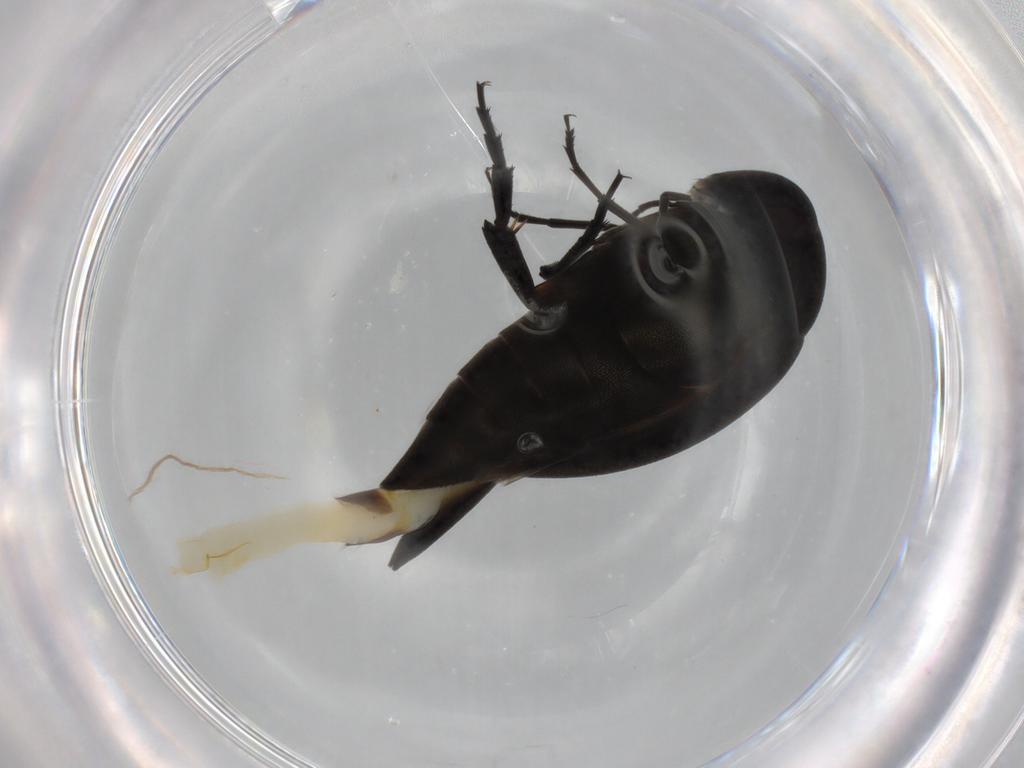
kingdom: Animalia
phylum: Arthropoda
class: Insecta
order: Coleoptera
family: Mordellidae
